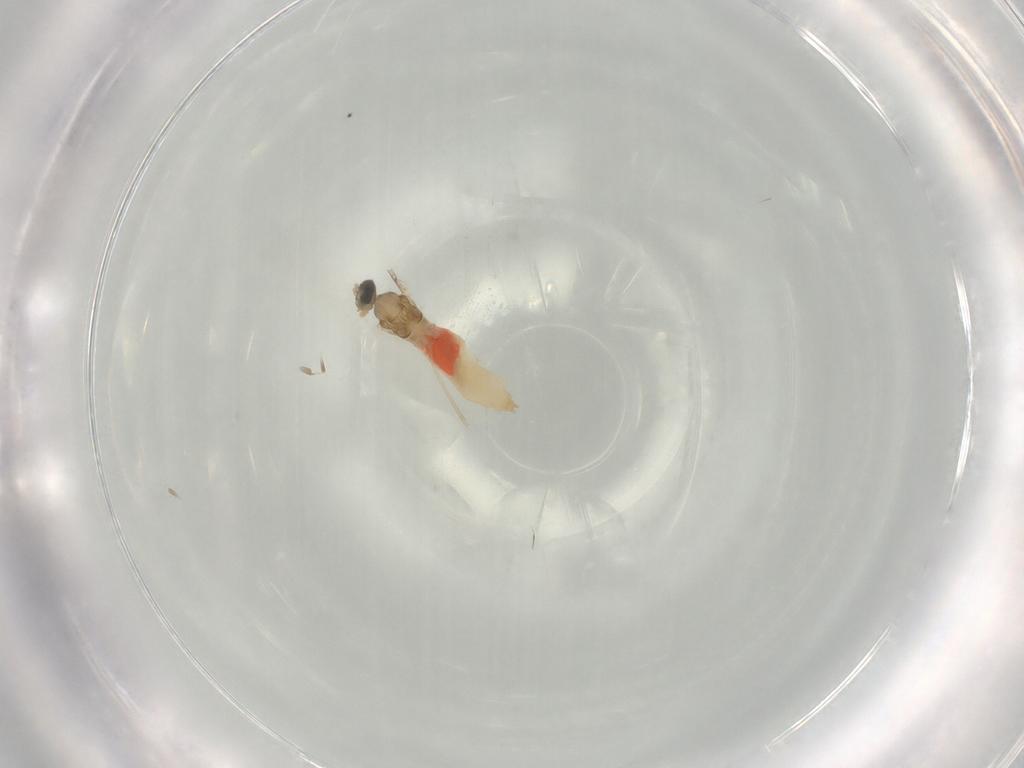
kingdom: Animalia
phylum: Arthropoda
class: Insecta
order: Diptera
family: Cecidomyiidae
